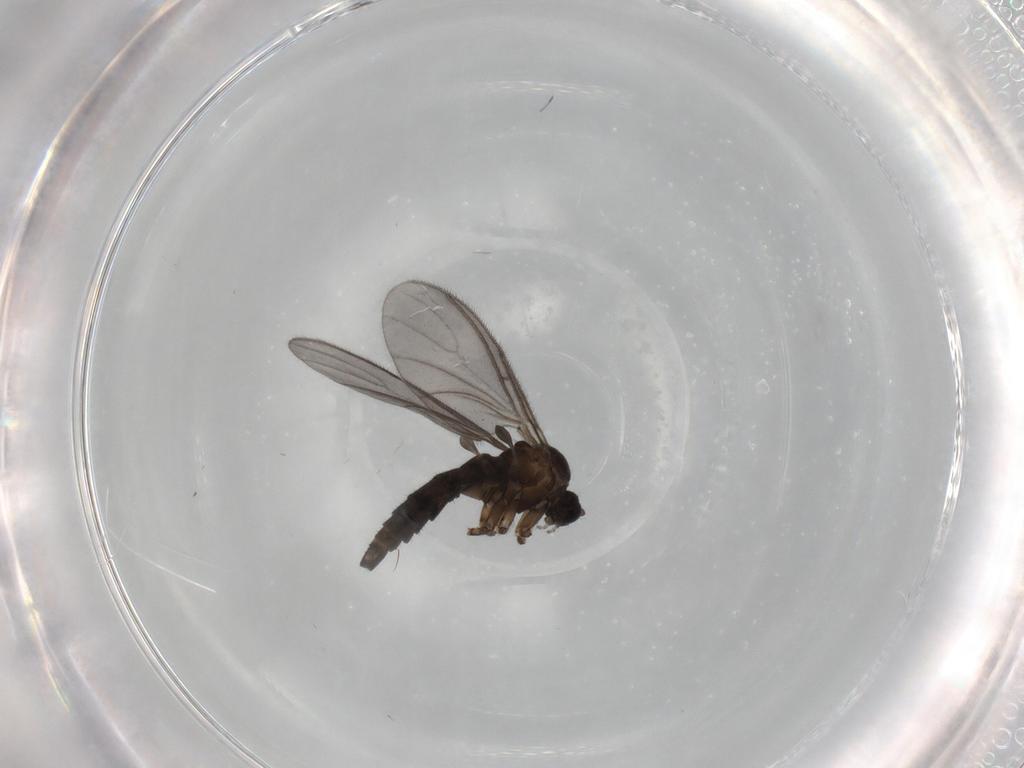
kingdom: Animalia
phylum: Arthropoda
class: Insecta
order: Diptera
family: Sciaridae
